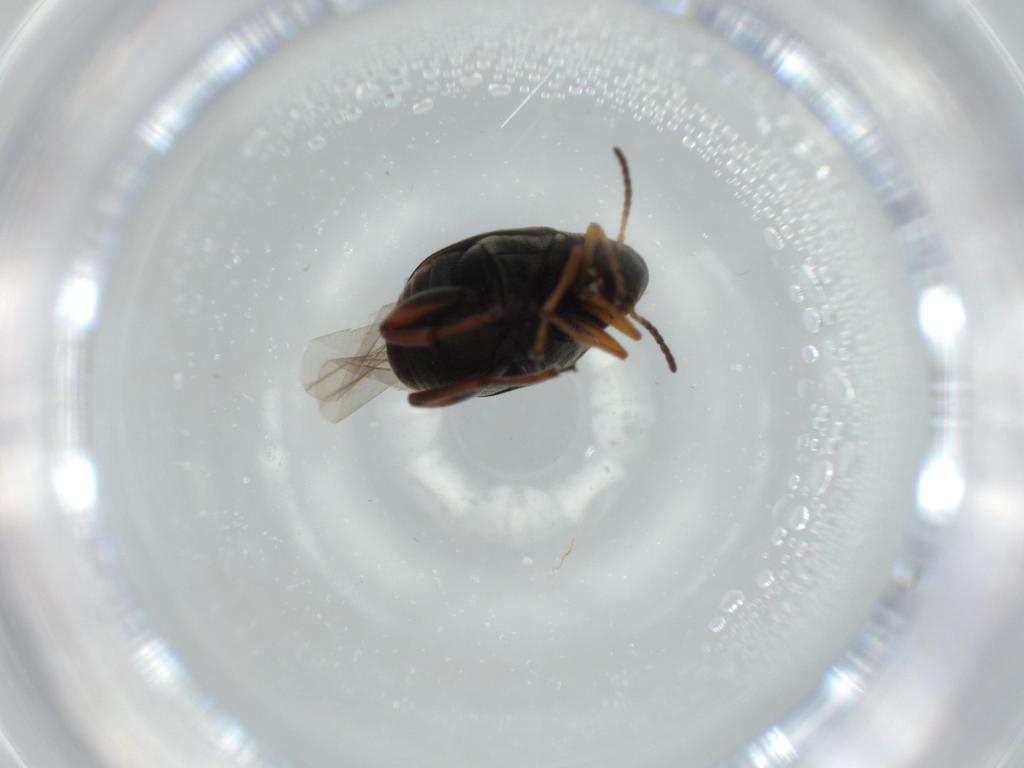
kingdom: Animalia
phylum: Arthropoda
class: Insecta
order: Coleoptera
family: Chrysomelidae
